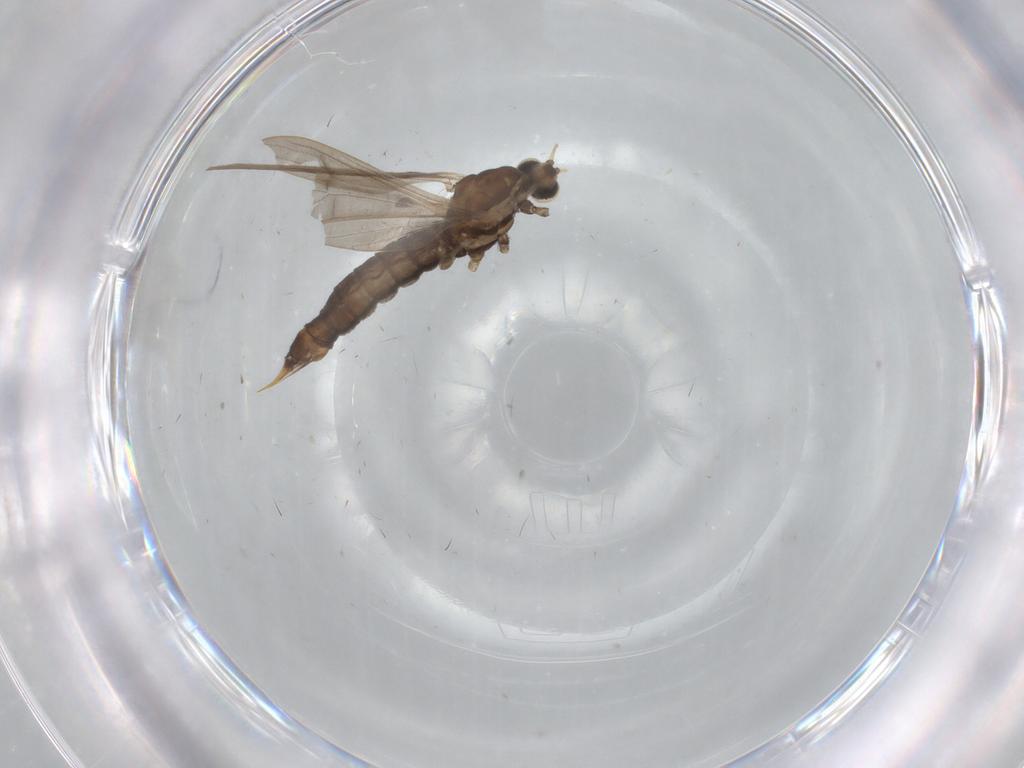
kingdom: Animalia
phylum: Arthropoda
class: Insecta
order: Diptera
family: Limoniidae
